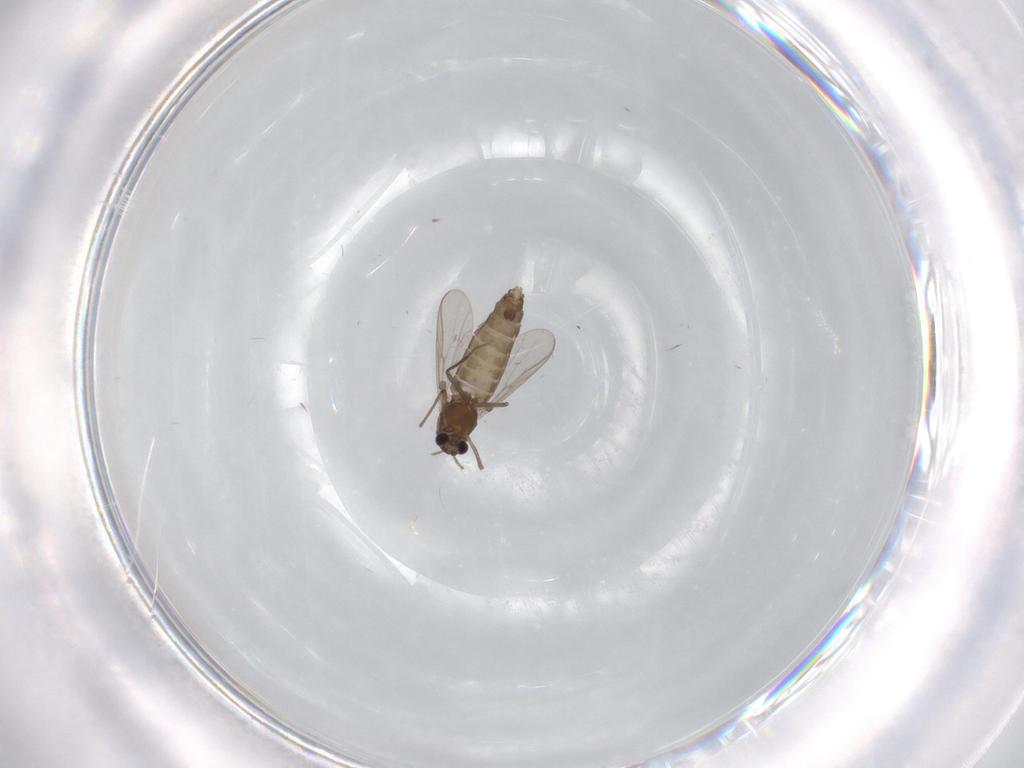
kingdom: Animalia
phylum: Arthropoda
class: Insecta
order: Diptera
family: Chironomidae
